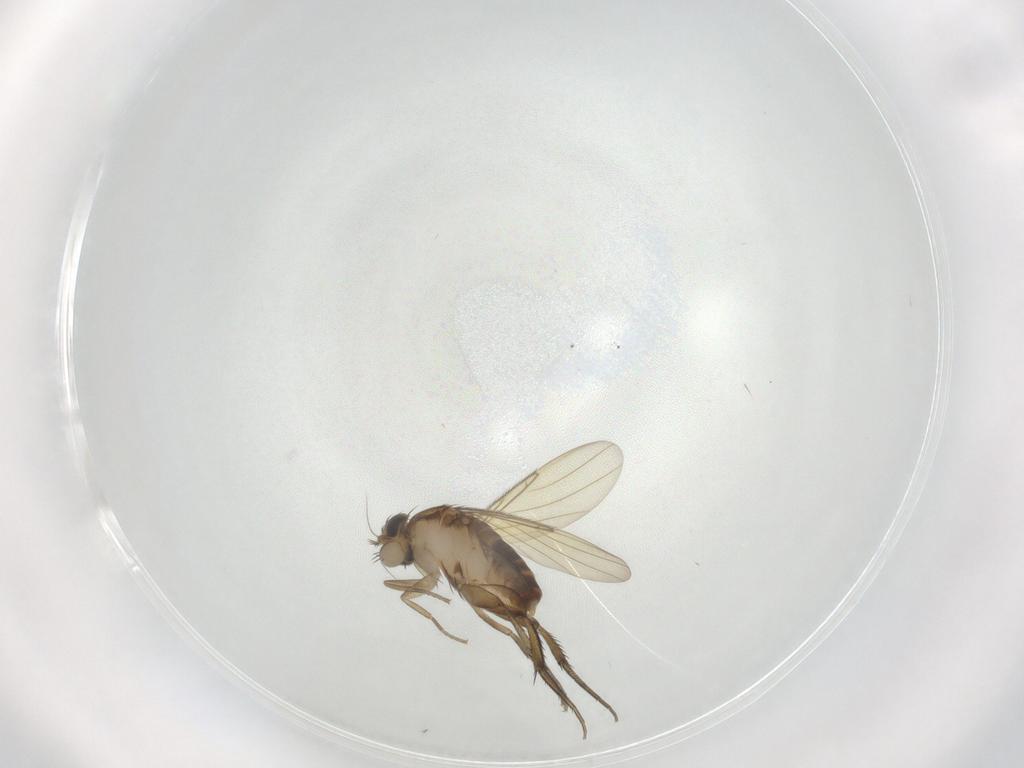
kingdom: Animalia
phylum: Arthropoda
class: Insecta
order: Diptera
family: Phoridae
